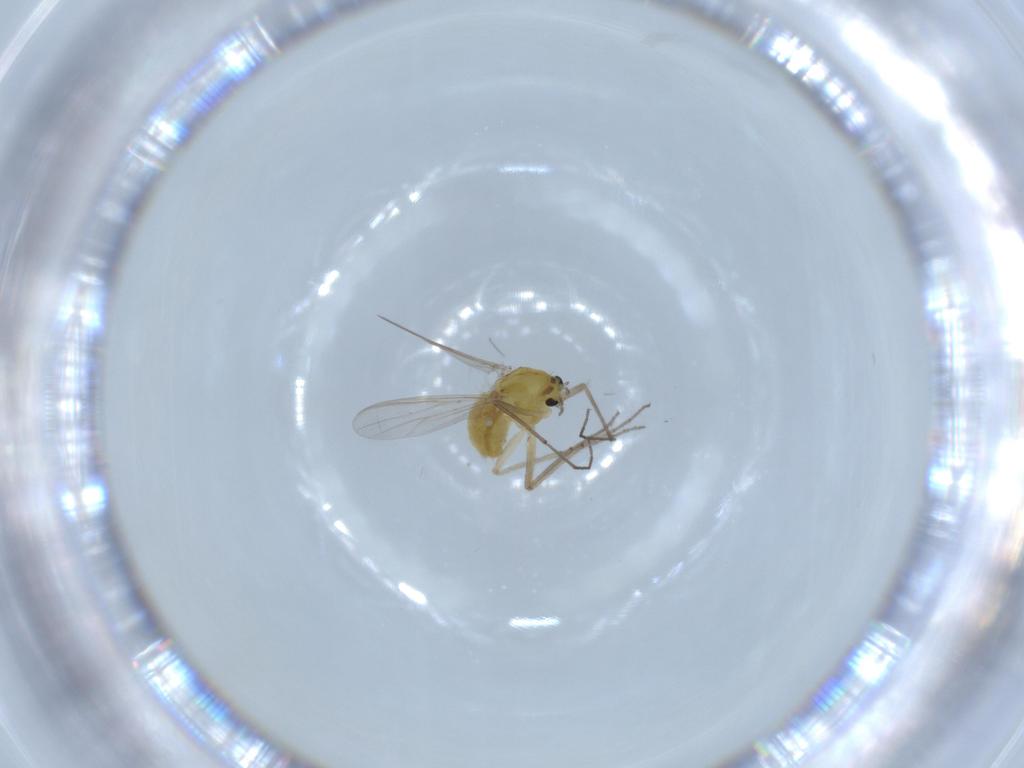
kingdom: Animalia
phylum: Arthropoda
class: Insecta
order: Diptera
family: Chironomidae
